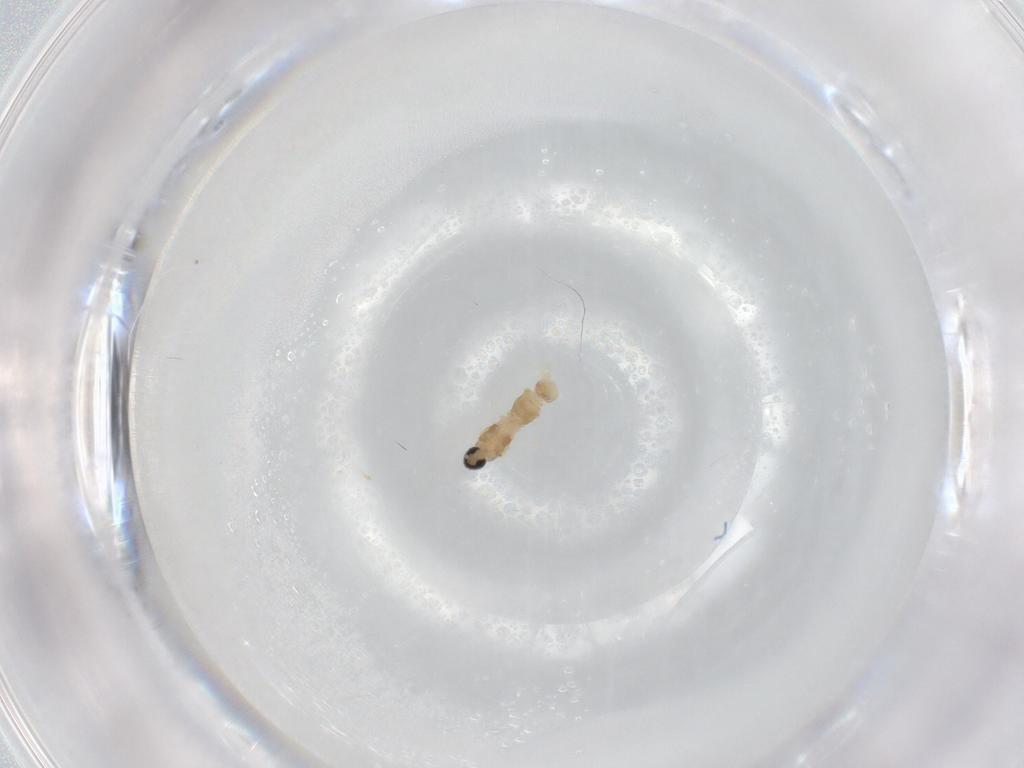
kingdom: Animalia
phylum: Arthropoda
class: Insecta
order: Diptera
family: Cecidomyiidae
